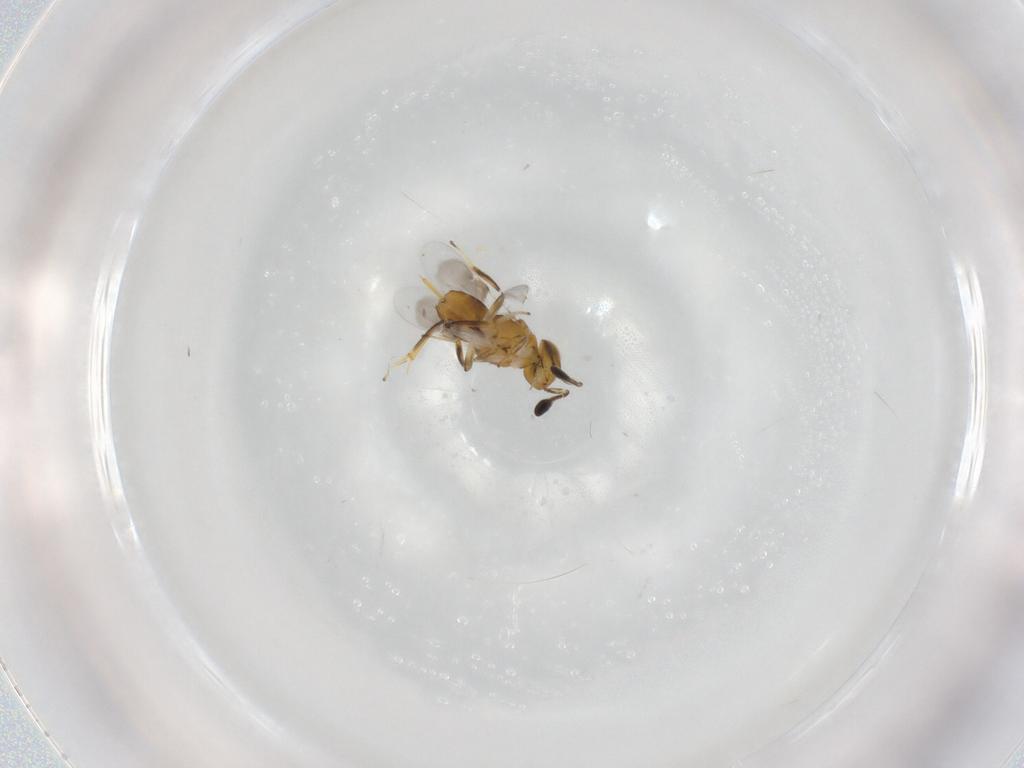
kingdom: Animalia
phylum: Arthropoda
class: Insecta
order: Hymenoptera
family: Encyrtidae
